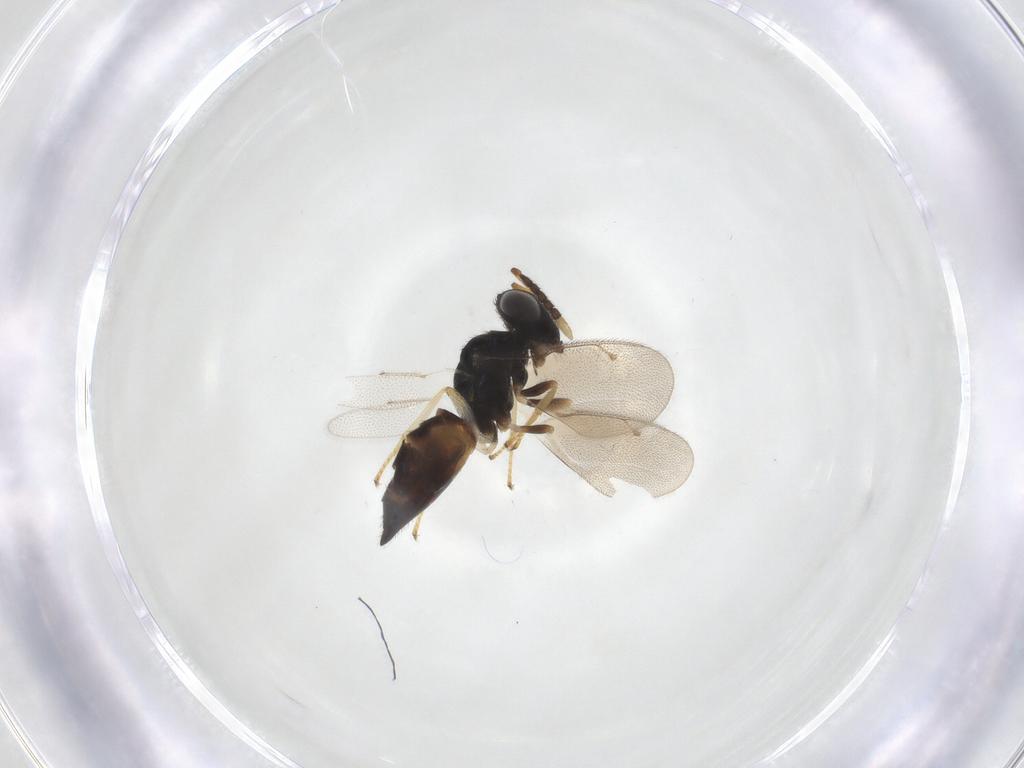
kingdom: Animalia
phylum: Arthropoda
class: Insecta
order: Hymenoptera
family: Pteromalidae
